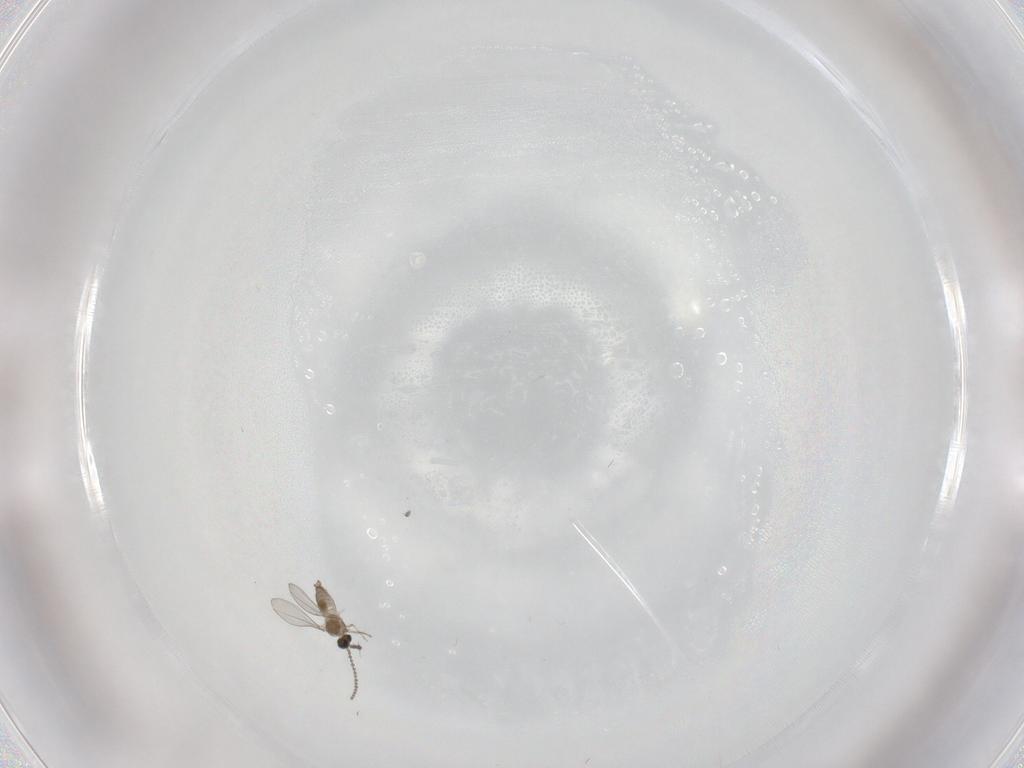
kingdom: Animalia
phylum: Arthropoda
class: Insecta
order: Diptera
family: Cecidomyiidae
